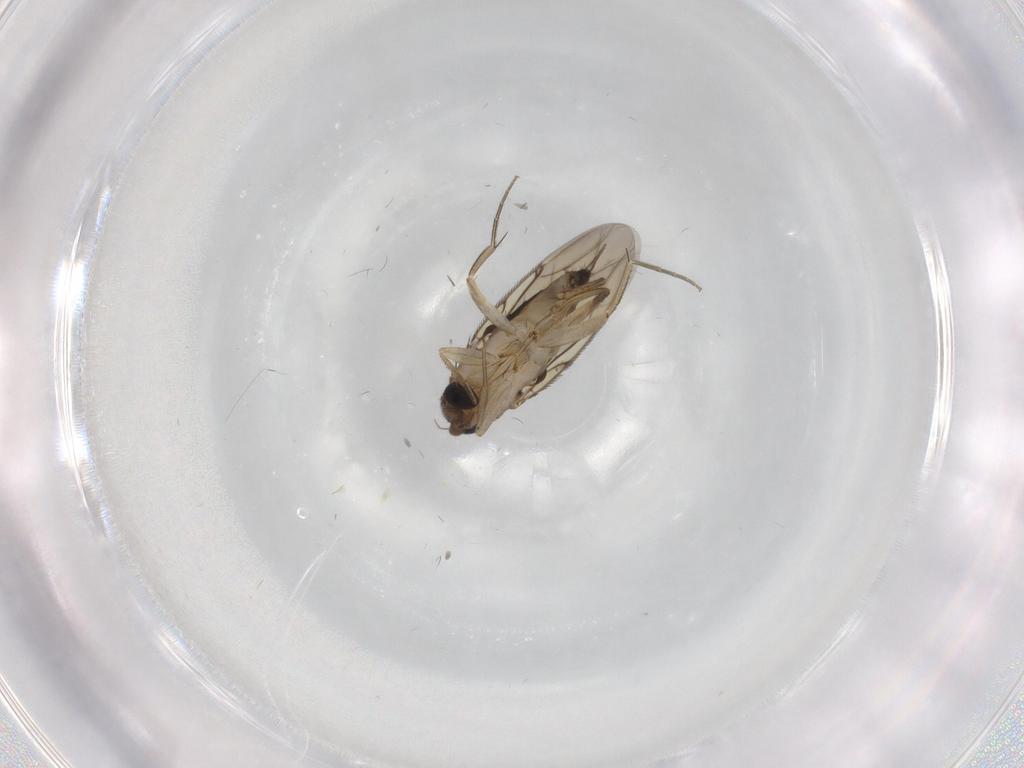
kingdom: Animalia
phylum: Arthropoda
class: Insecta
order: Diptera
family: Phoridae
